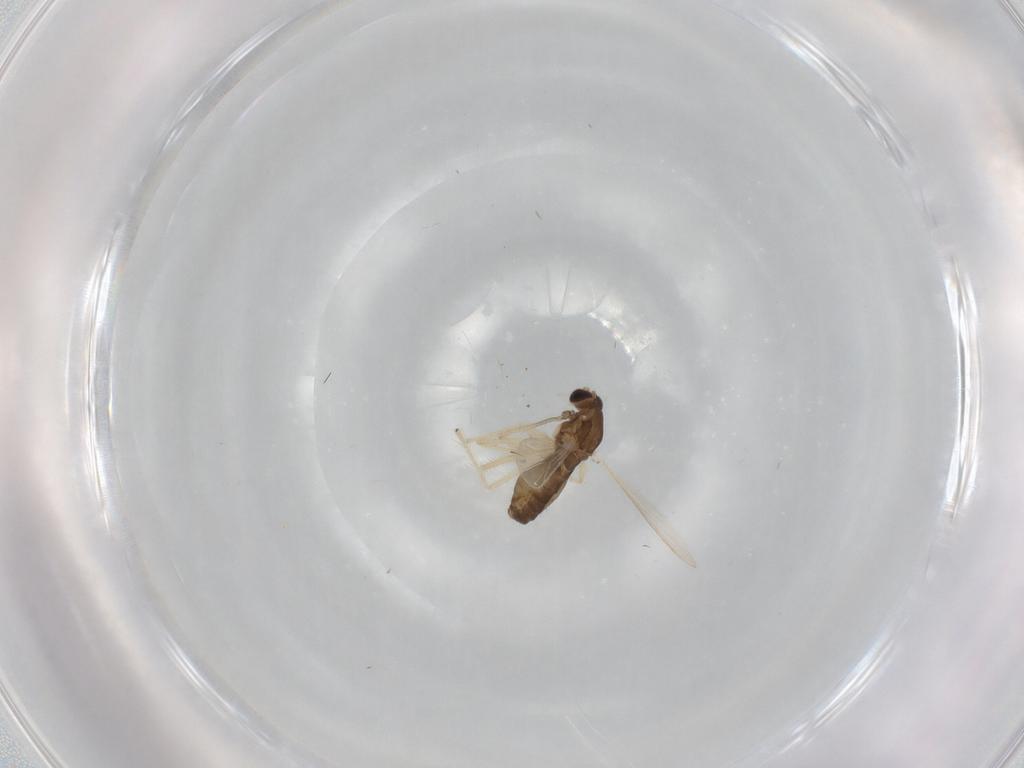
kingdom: Animalia
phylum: Arthropoda
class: Insecta
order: Diptera
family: Chironomidae
